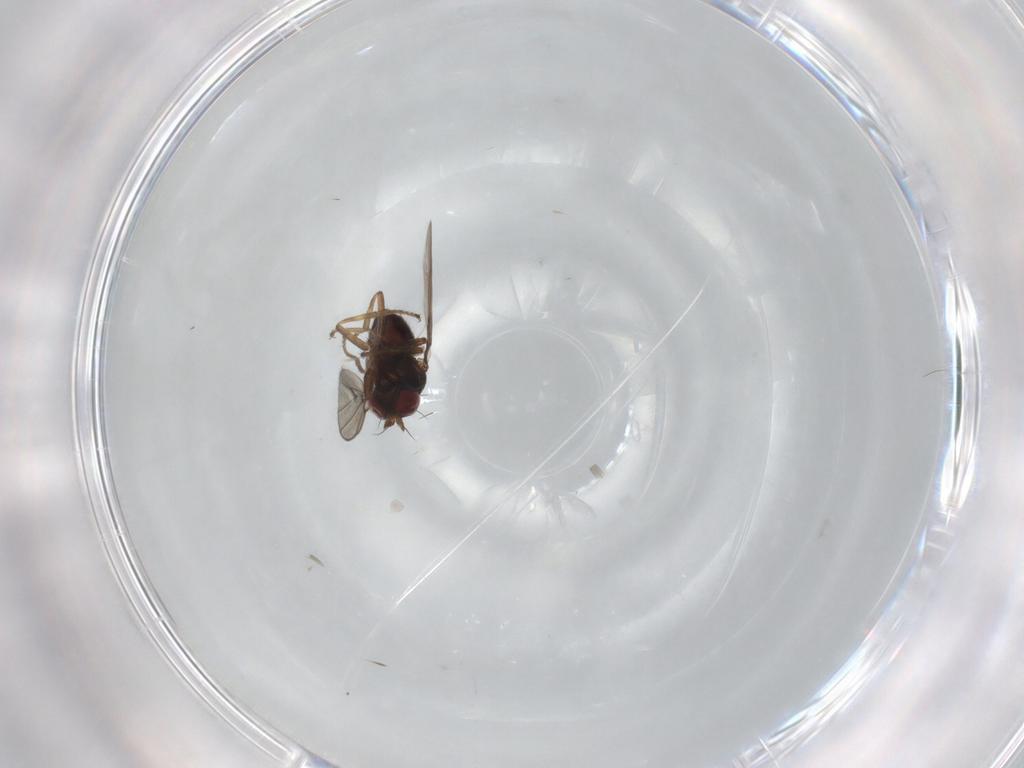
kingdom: Animalia
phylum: Arthropoda
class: Insecta
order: Diptera
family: Ephydridae
